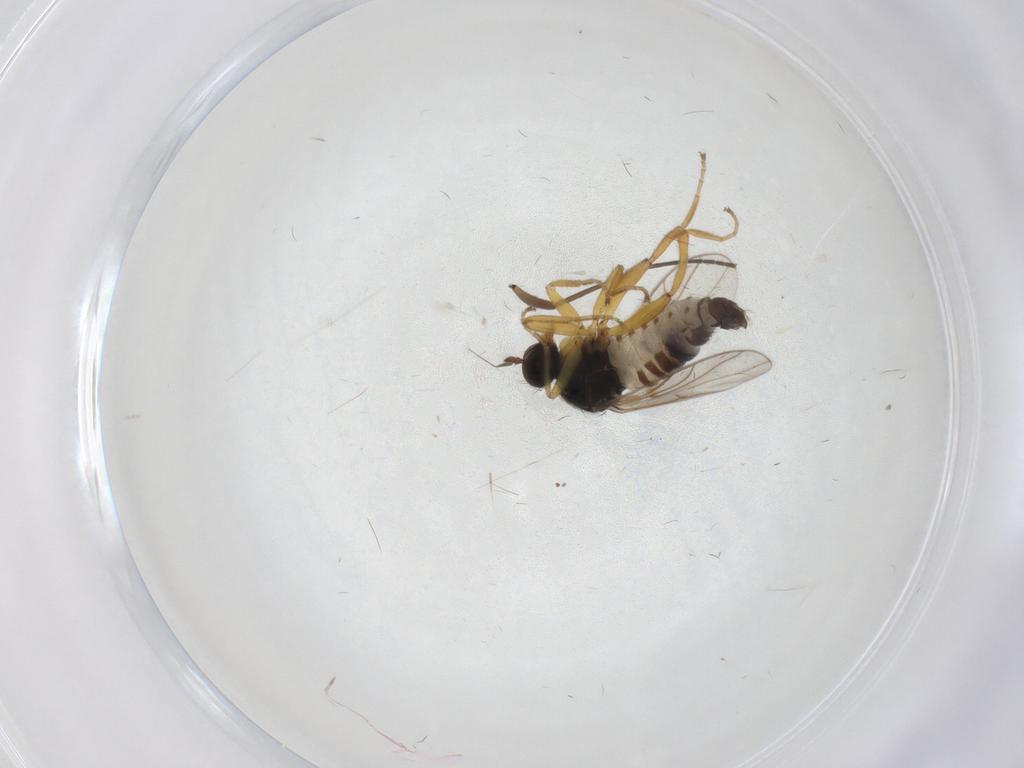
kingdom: Animalia
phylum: Arthropoda
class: Insecta
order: Diptera
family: Hybotidae
